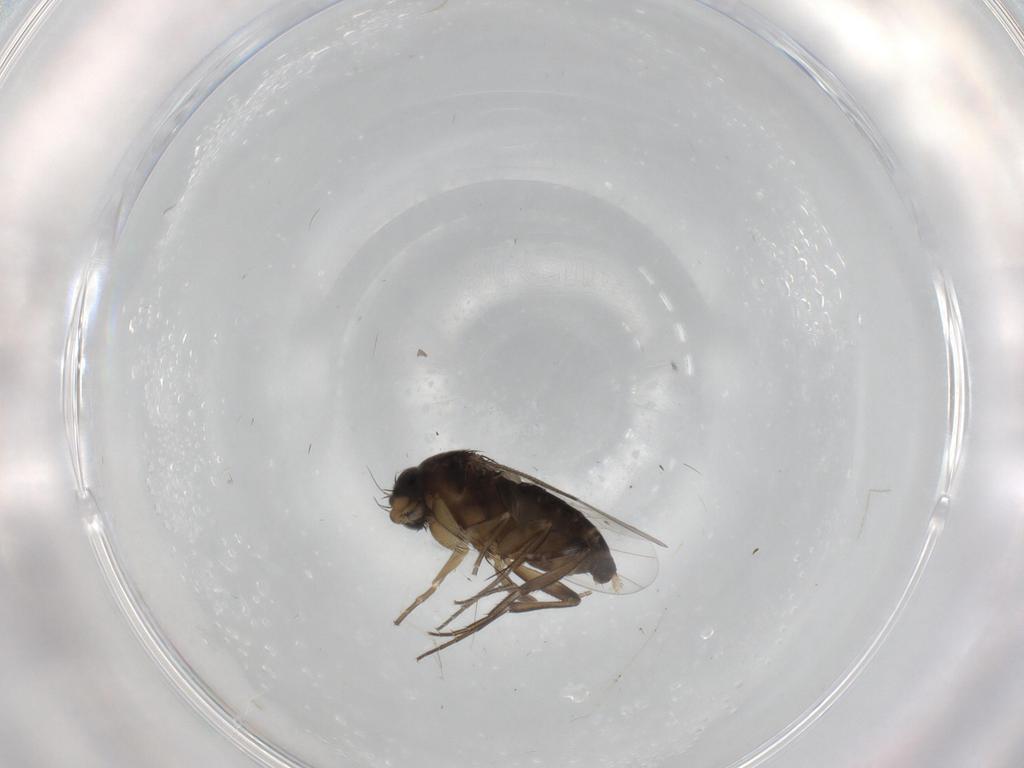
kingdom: Animalia
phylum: Arthropoda
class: Insecta
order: Diptera
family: Phoridae
